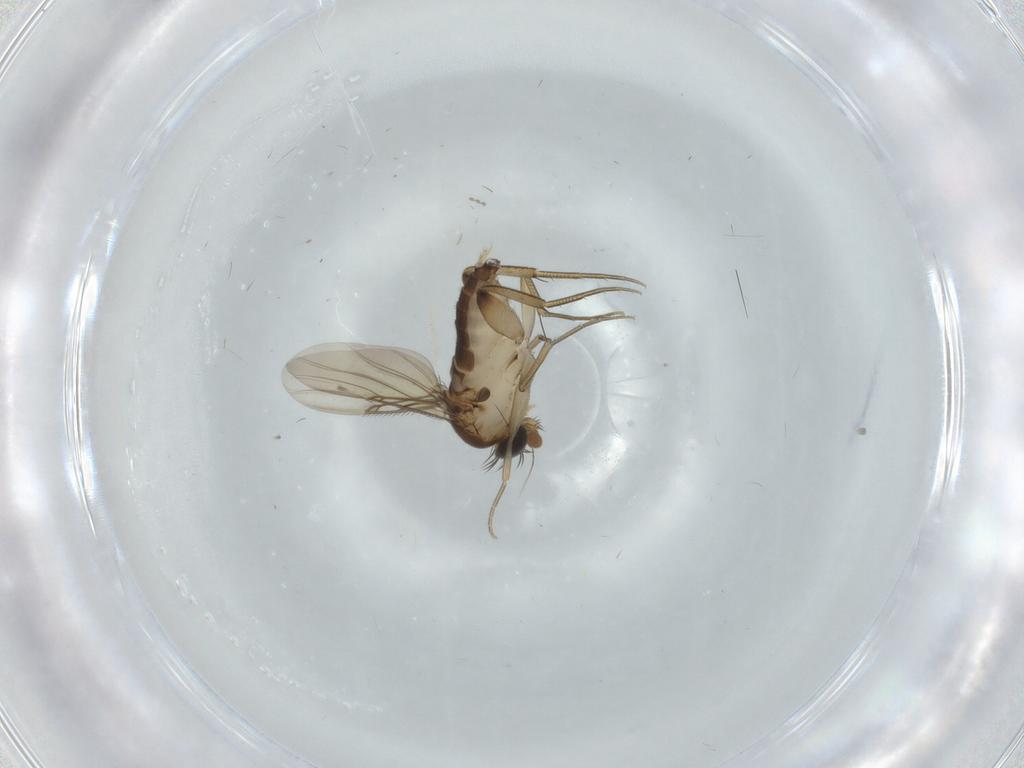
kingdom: Animalia
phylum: Arthropoda
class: Insecta
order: Diptera
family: Phoridae
